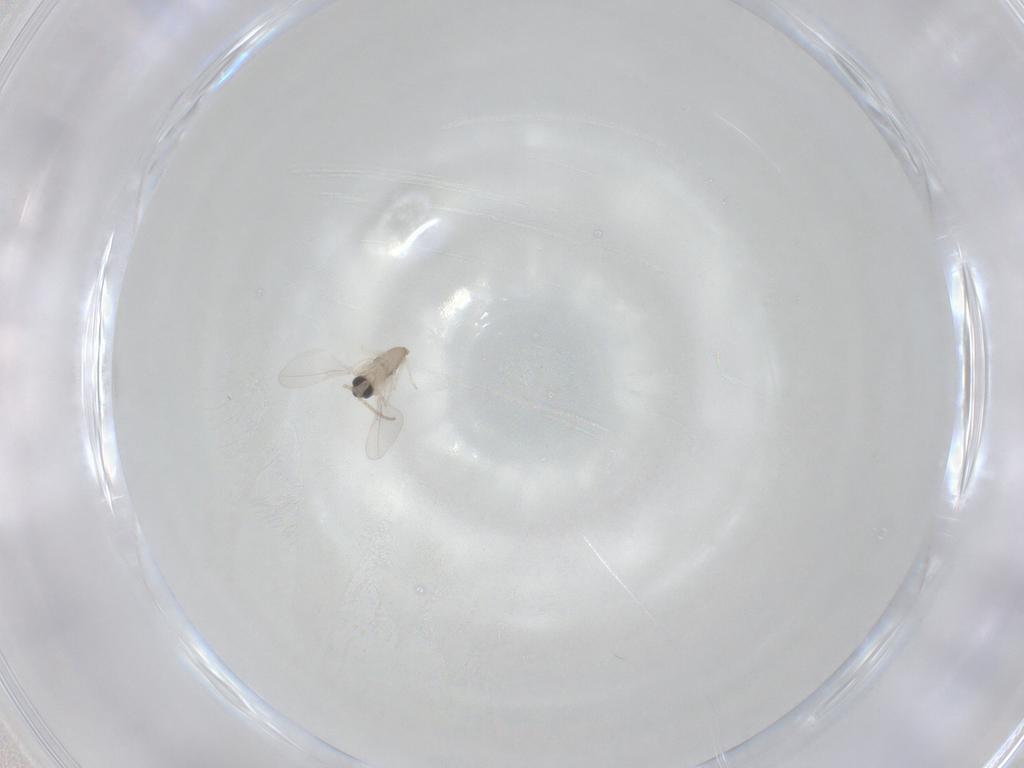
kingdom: Animalia
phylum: Arthropoda
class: Insecta
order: Diptera
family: Cecidomyiidae
